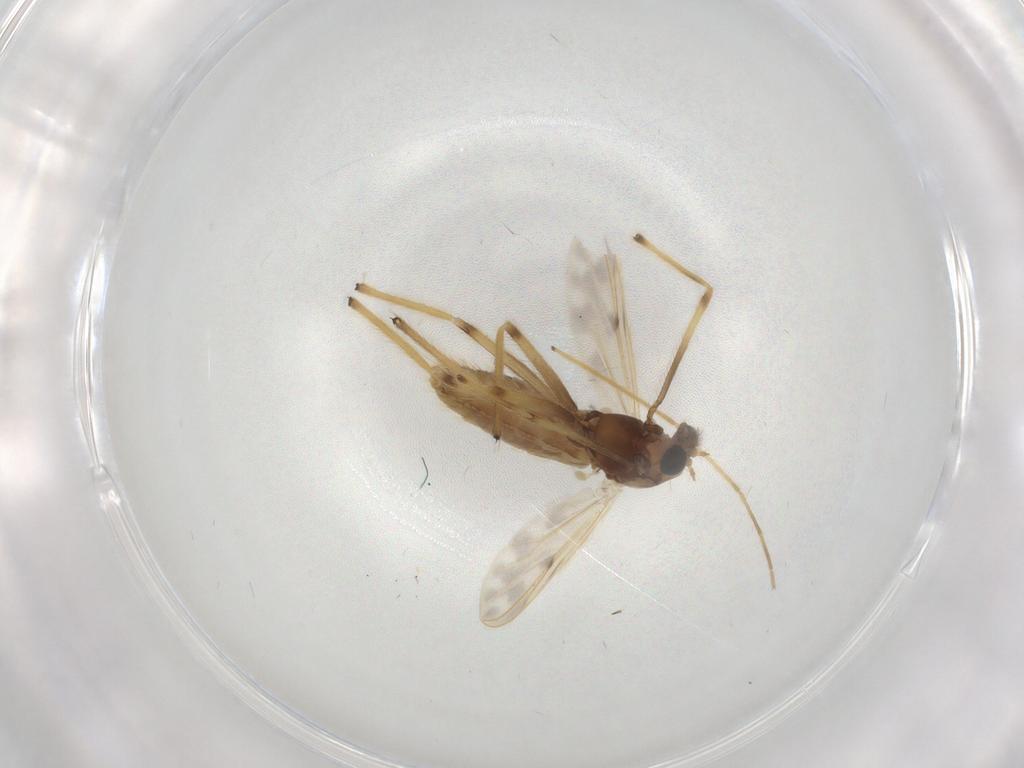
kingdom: Animalia
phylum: Arthropoda
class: Insecta
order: Diptera
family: Chironomidae
